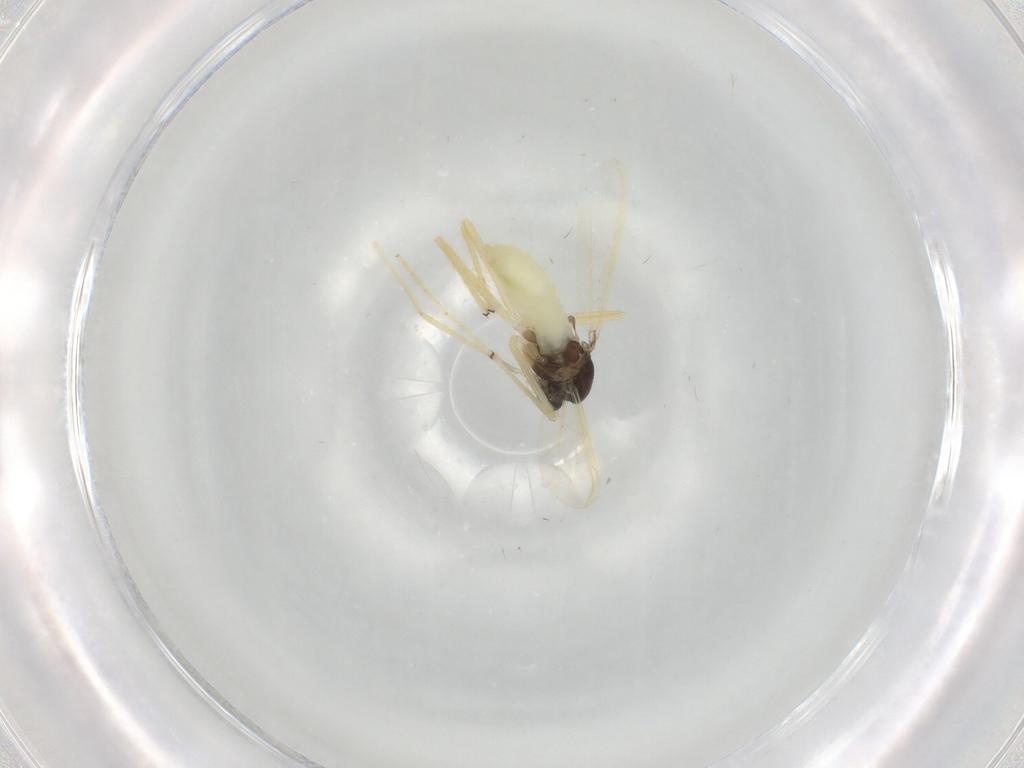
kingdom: Animalia
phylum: Arthropoda
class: Insecta
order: Diptera
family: Chironomidae
